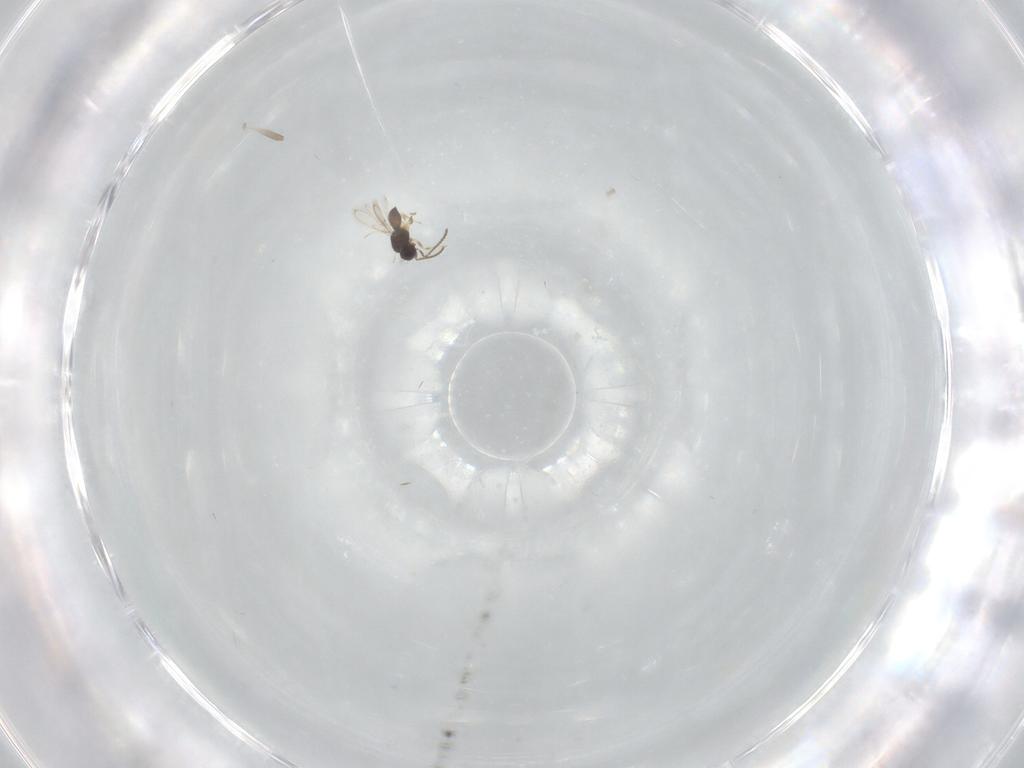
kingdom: Animalia
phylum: Arthropoda
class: Insecta
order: Hymenoptera
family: Scelionidae
